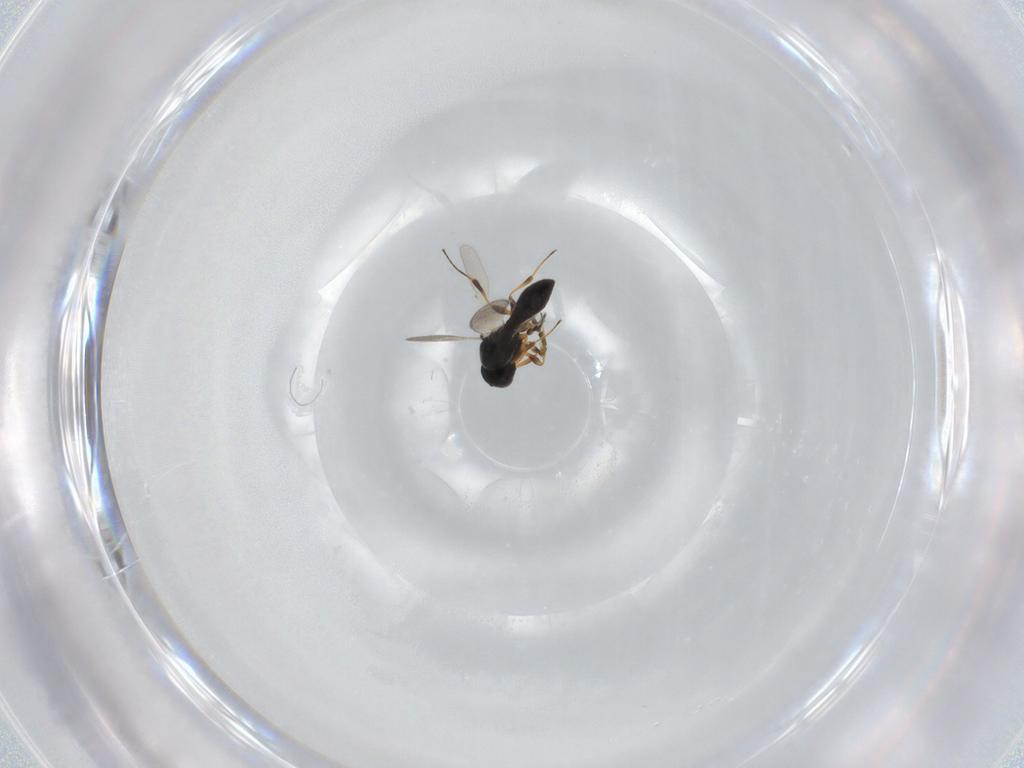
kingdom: Animalia
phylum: Arthropoda
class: Insecta
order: Hymenoptera
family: Platygastridae
